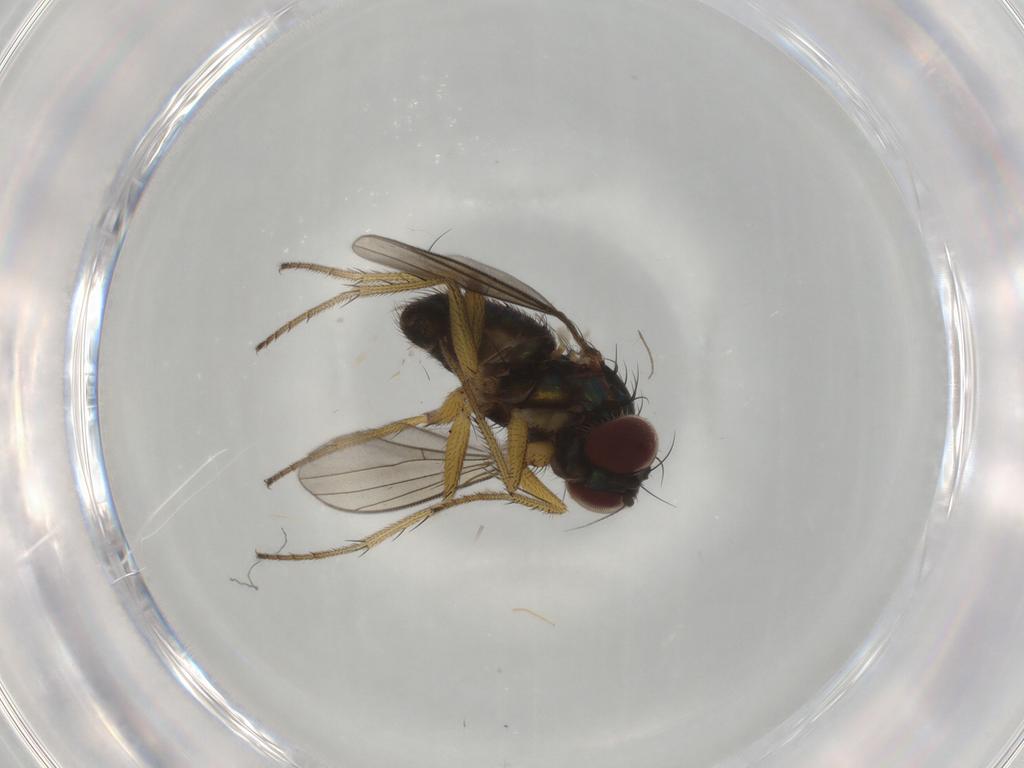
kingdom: Animalia
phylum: Arthropoda
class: Insecta
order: Diptera
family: Dolichopodidae
